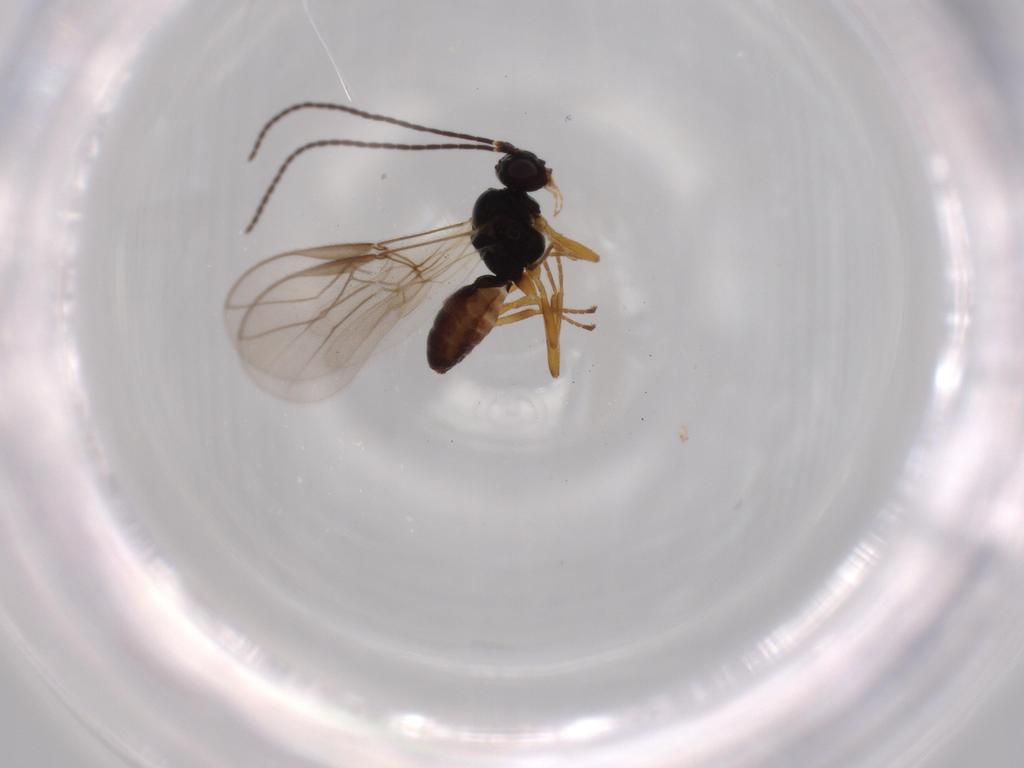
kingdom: Animalia
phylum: Arthropoda
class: Insecta
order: Hymenoptera
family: Braconidae
